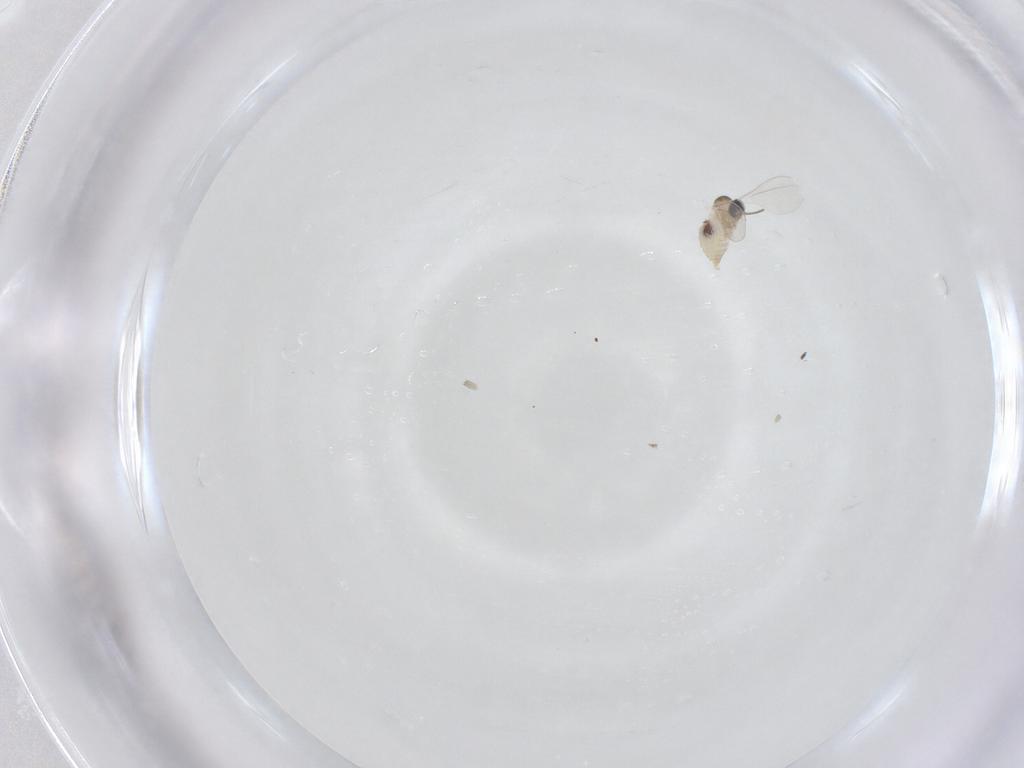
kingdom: Animalia
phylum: Arthropoda
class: Insecta
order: Diptera
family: Cecidomyiidae
